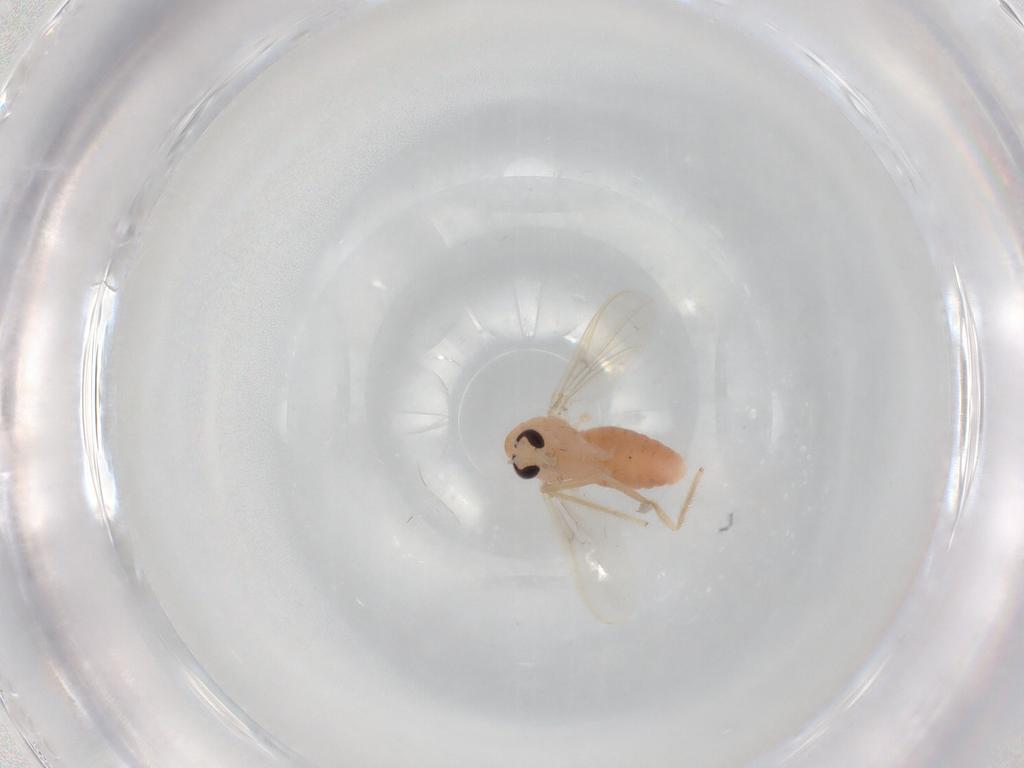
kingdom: Animalia
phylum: Arthropoda
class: Insecta
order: Diptera
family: Chironomidae
